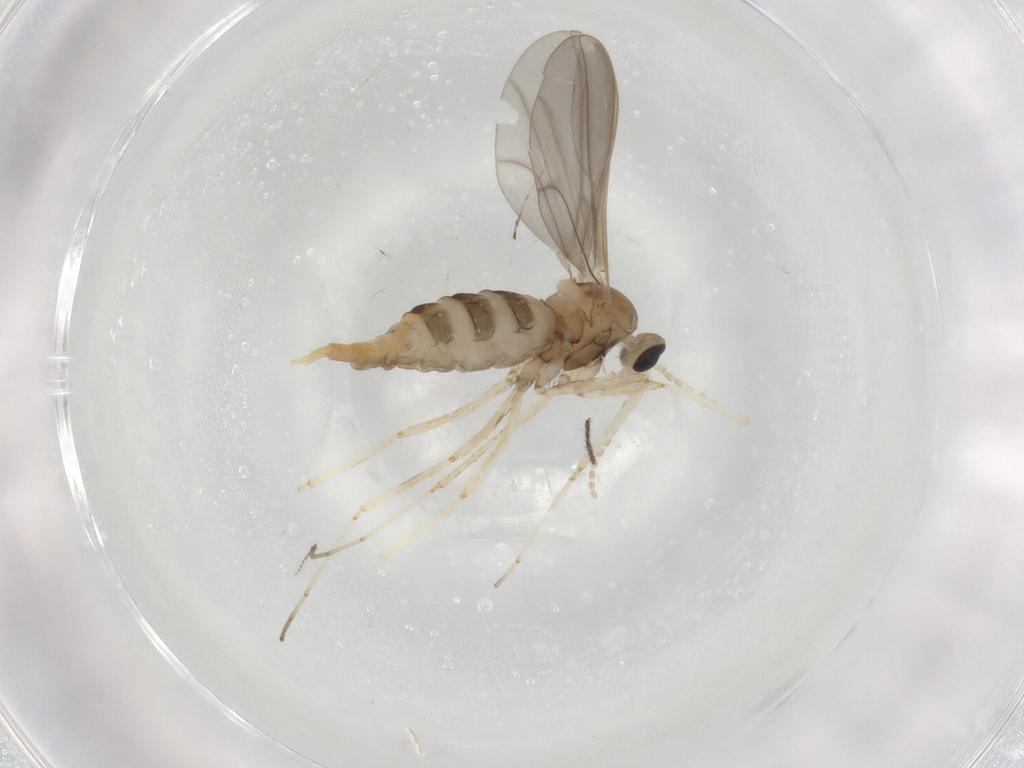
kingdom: Animalia
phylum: Arthropoda
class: Insecta
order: Diptera
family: Cecidomyiidae
